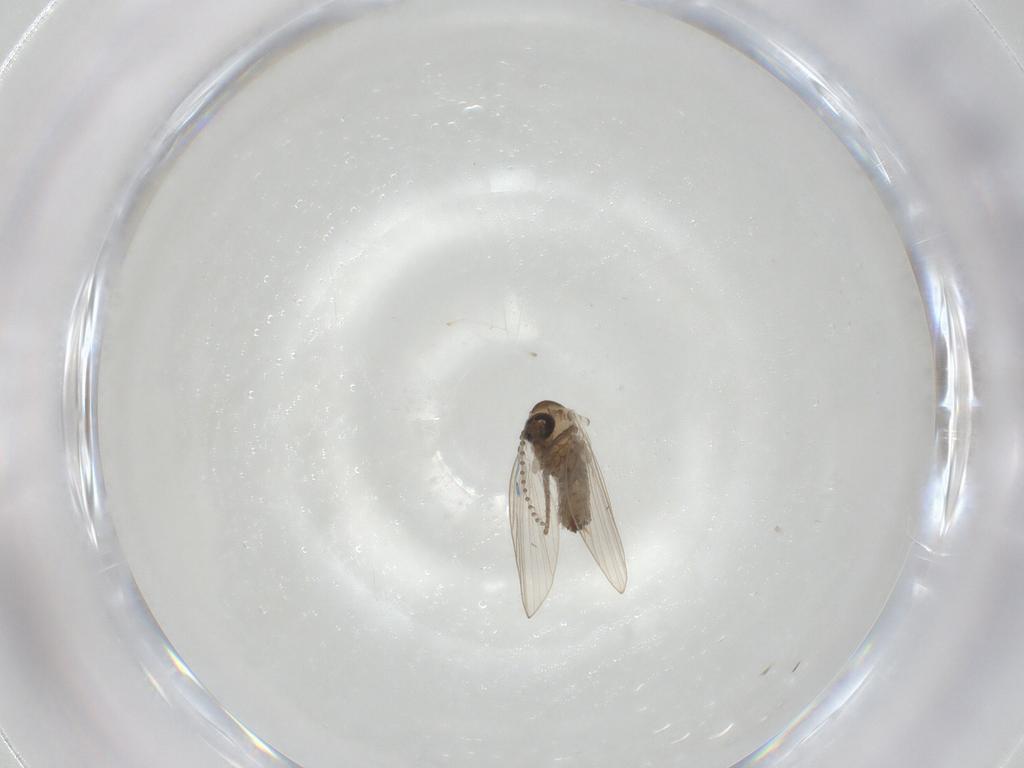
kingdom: Animalia
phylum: Arthropoda
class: Insecta
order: Diptera
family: Psychodidae
